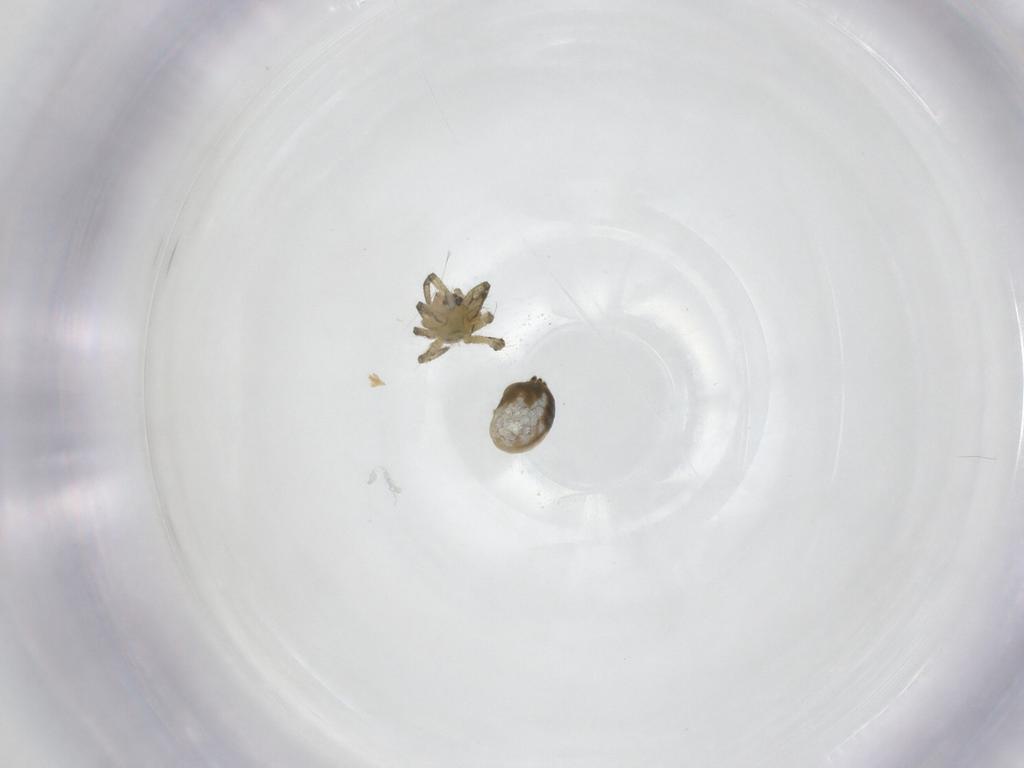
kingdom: Animalia
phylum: Arthropoda
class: Arachnida
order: Araneae
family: Tetragnathidae
